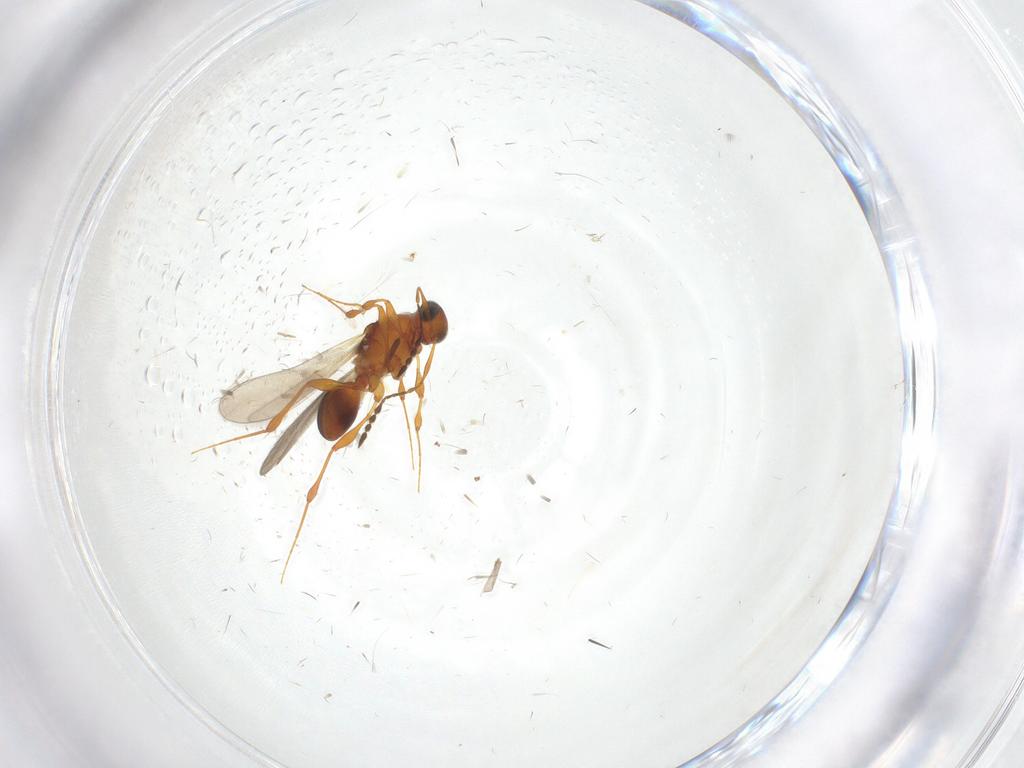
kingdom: Animalia
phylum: Arthropoda
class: Insecta
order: Hymenoptera
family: Platygastridae
